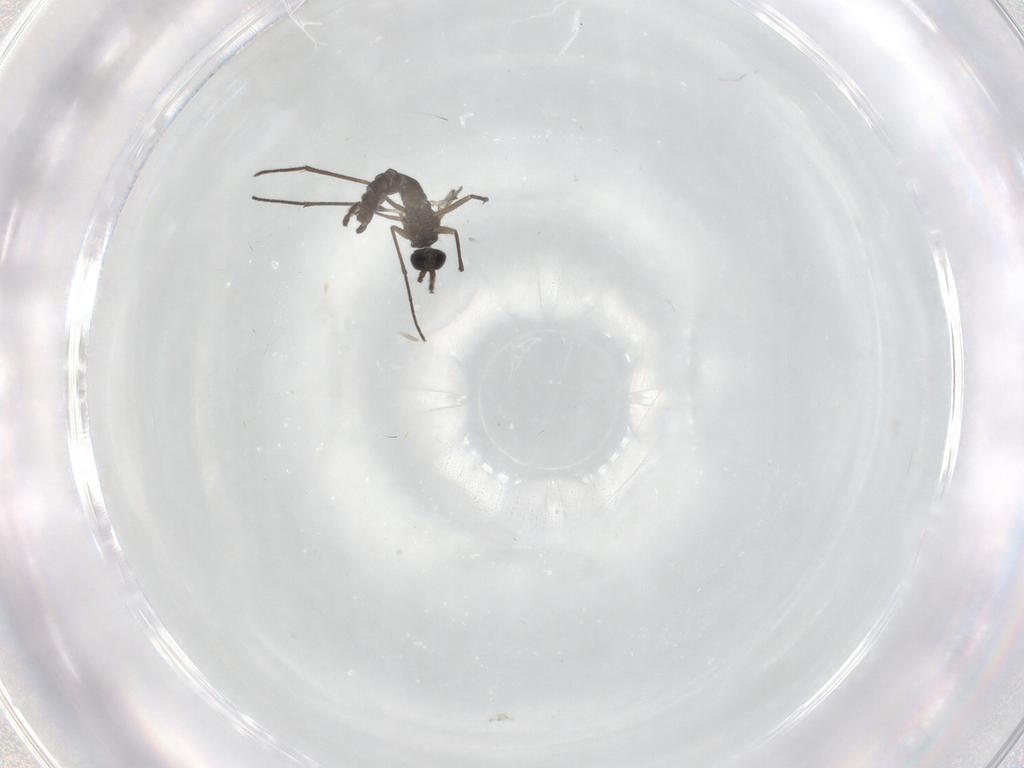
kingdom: Animalia
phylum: Arthropoda
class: Insecta
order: Diptera
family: Sciaridae
